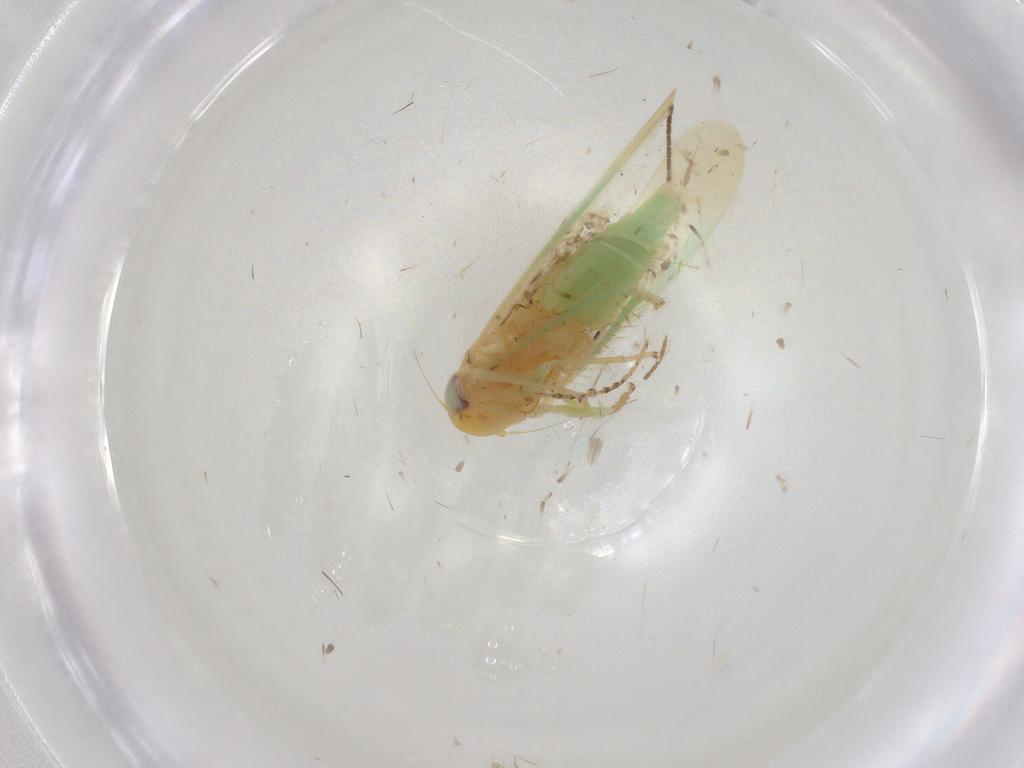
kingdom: Animalia
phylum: Arthropoda
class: Insecta
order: Hemiptera
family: Cicadellidae
